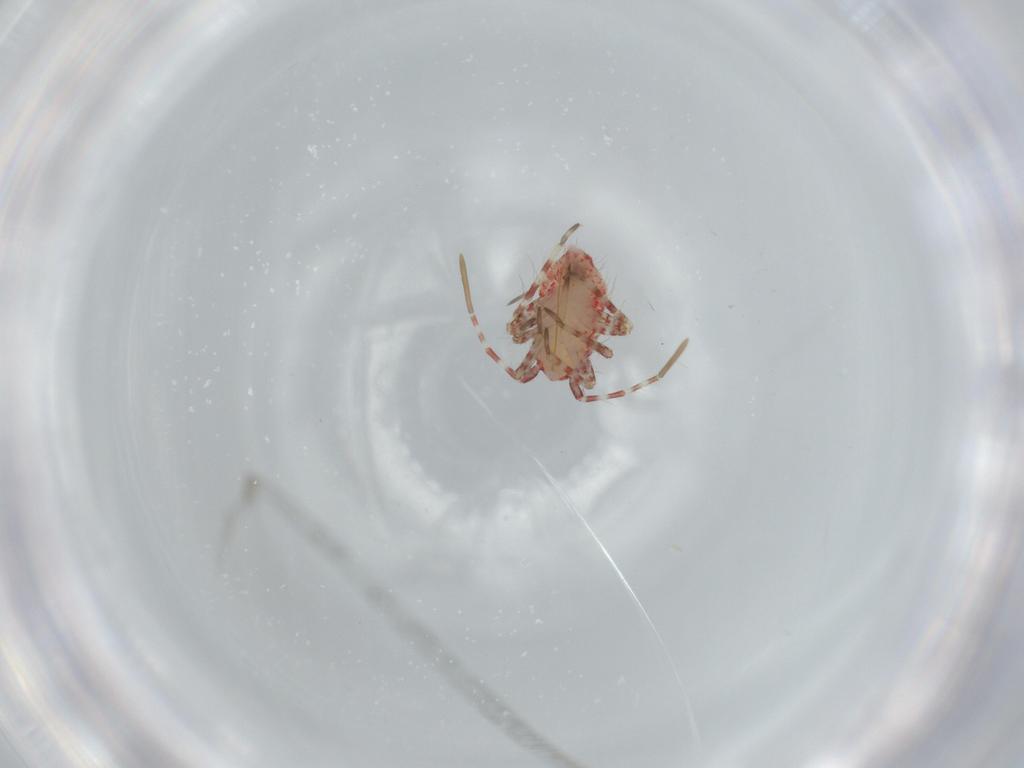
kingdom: Animalia
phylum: Arthropoda
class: Insecta
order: Hemiptera
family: Miridae
